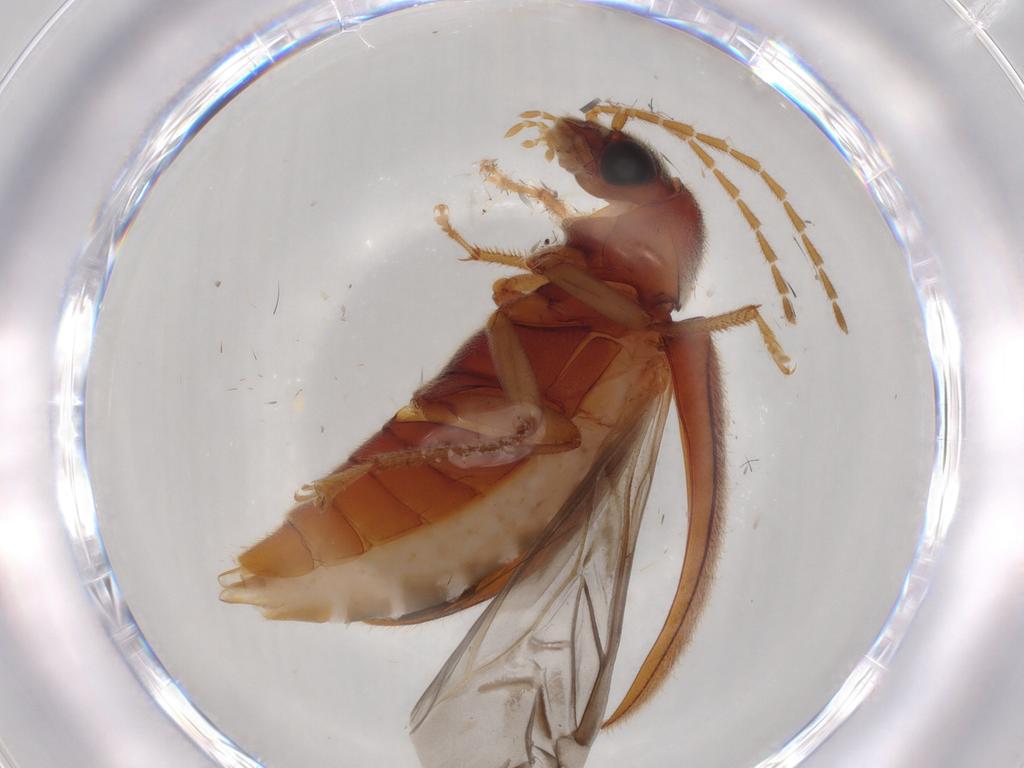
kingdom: Animalia
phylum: Arthropoda
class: Insecta
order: Coleoptera
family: Ptilodactylidae
